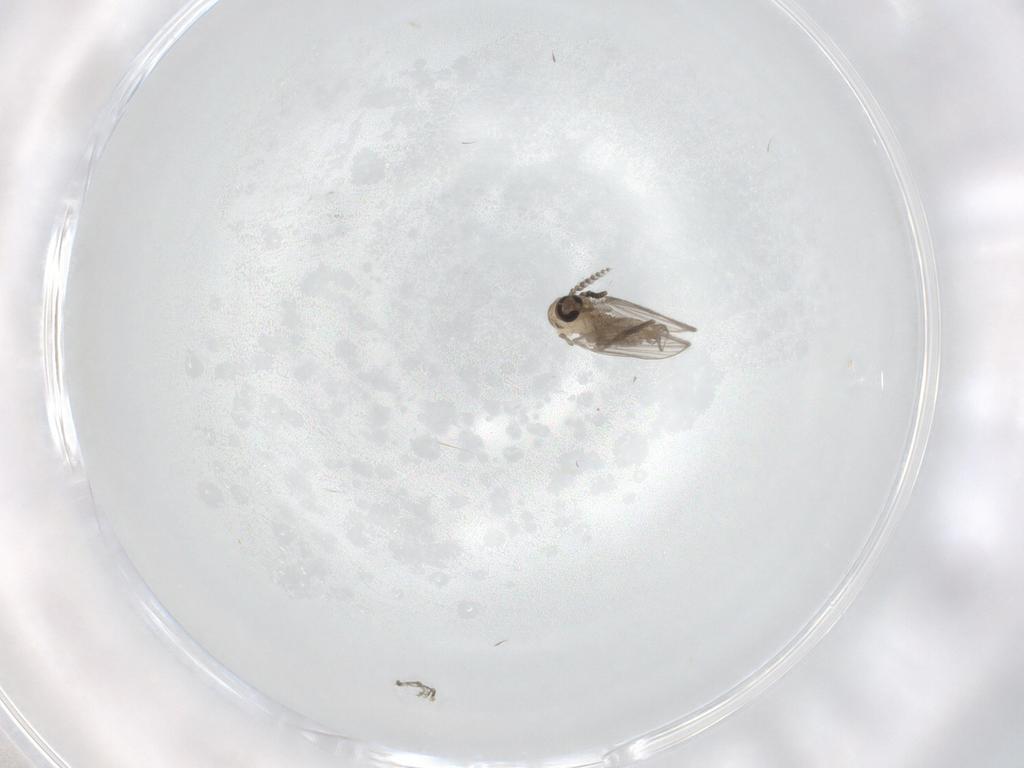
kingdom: Animalia
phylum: Arthropoda
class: Insecta
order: Diptera
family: Psychodidae
